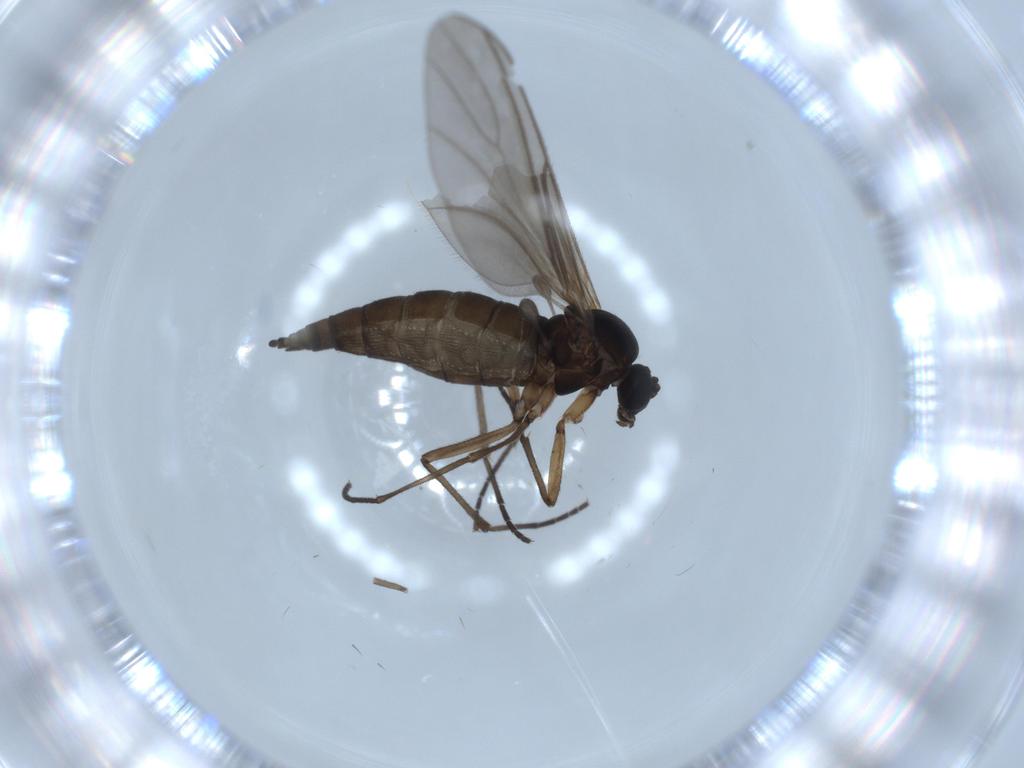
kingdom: Animalia
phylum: Arthropoda
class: Insecta
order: Diptera
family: Sciaridae
